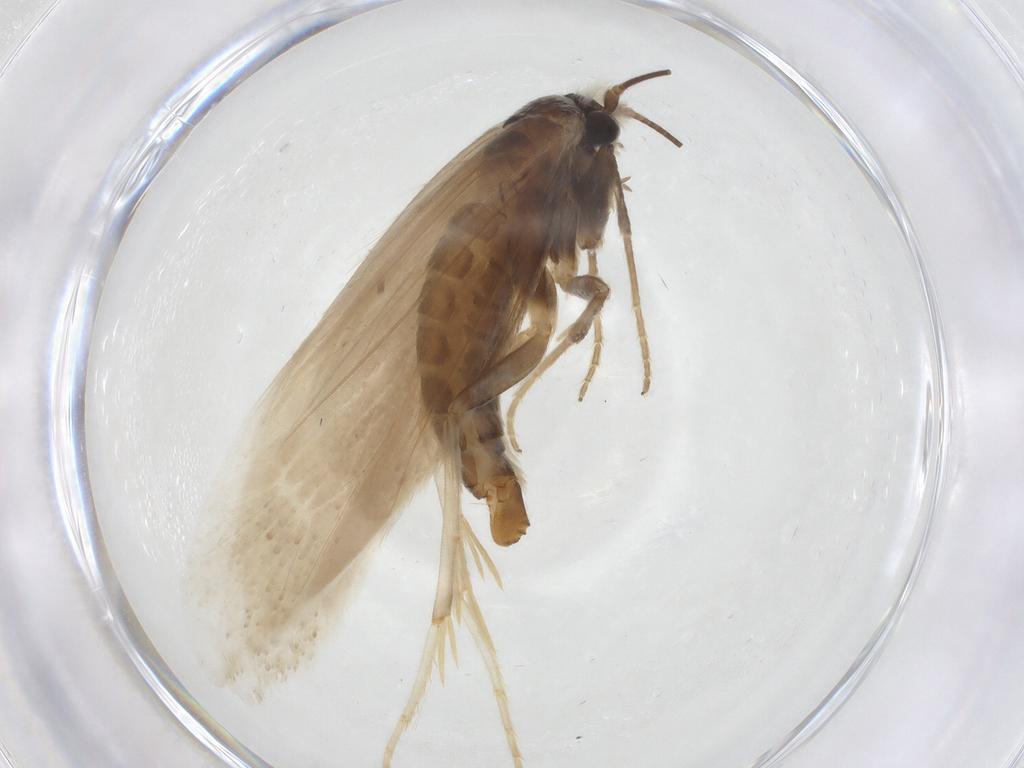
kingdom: Animalia
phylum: Arthropoda
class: Insecta
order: Lepidoptera
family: Tridentaformidae
